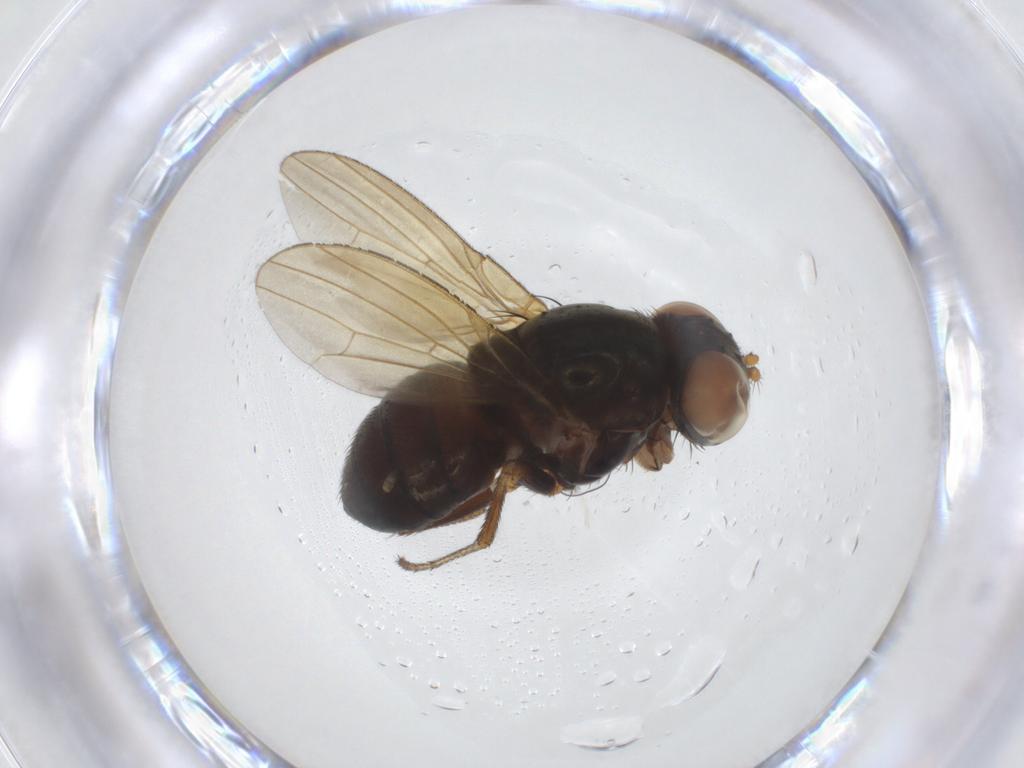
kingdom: Animalia
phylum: Arthropoda
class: Insecta
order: Diptera
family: Lauxaniidae
